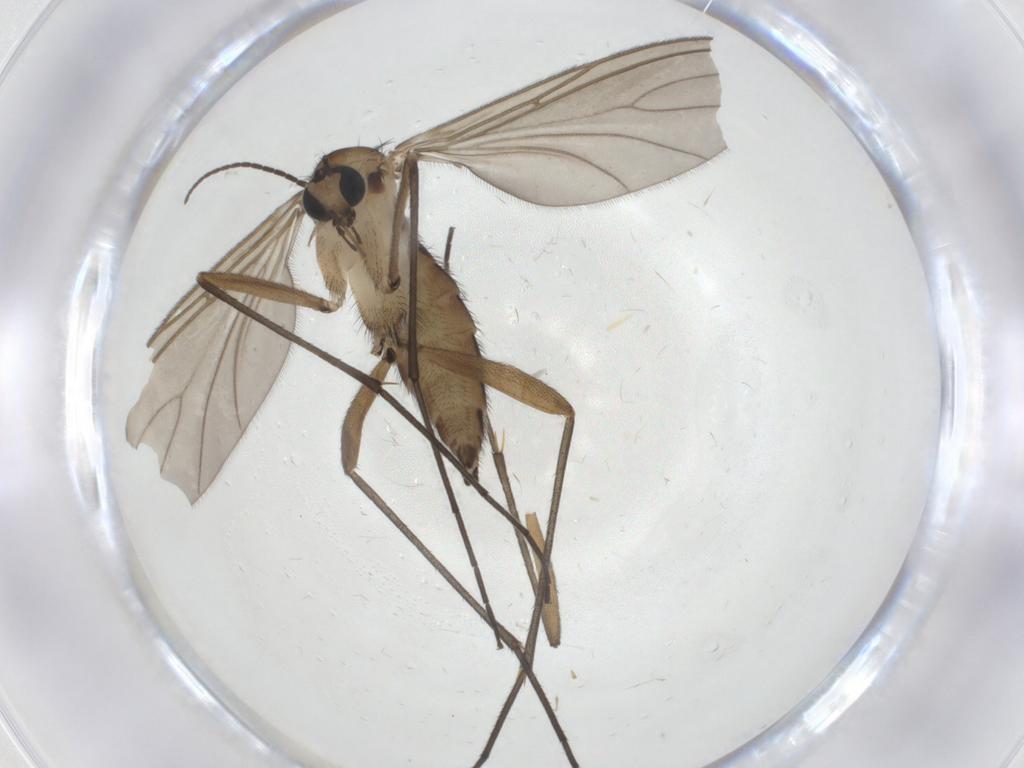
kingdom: Animalia
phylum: Arthropoda
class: Insecta
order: Diptera
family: Sciaridae
